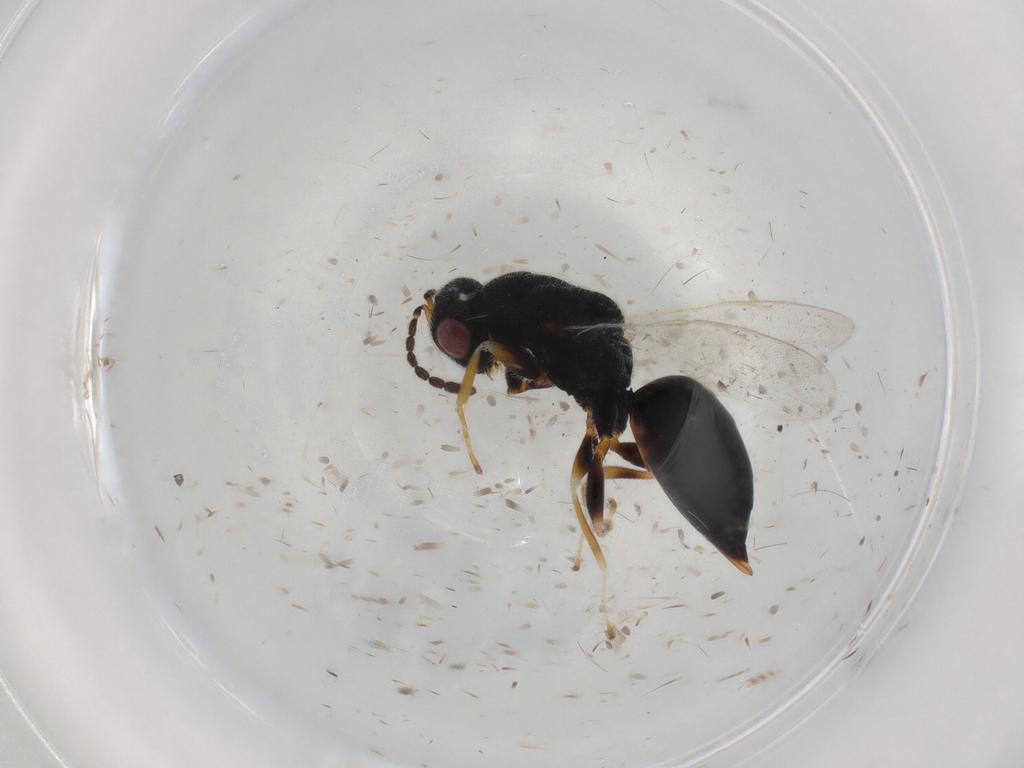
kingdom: Animalia
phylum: Arthropoda
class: Insecta
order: Hymenoptera
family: Eurytomidae
